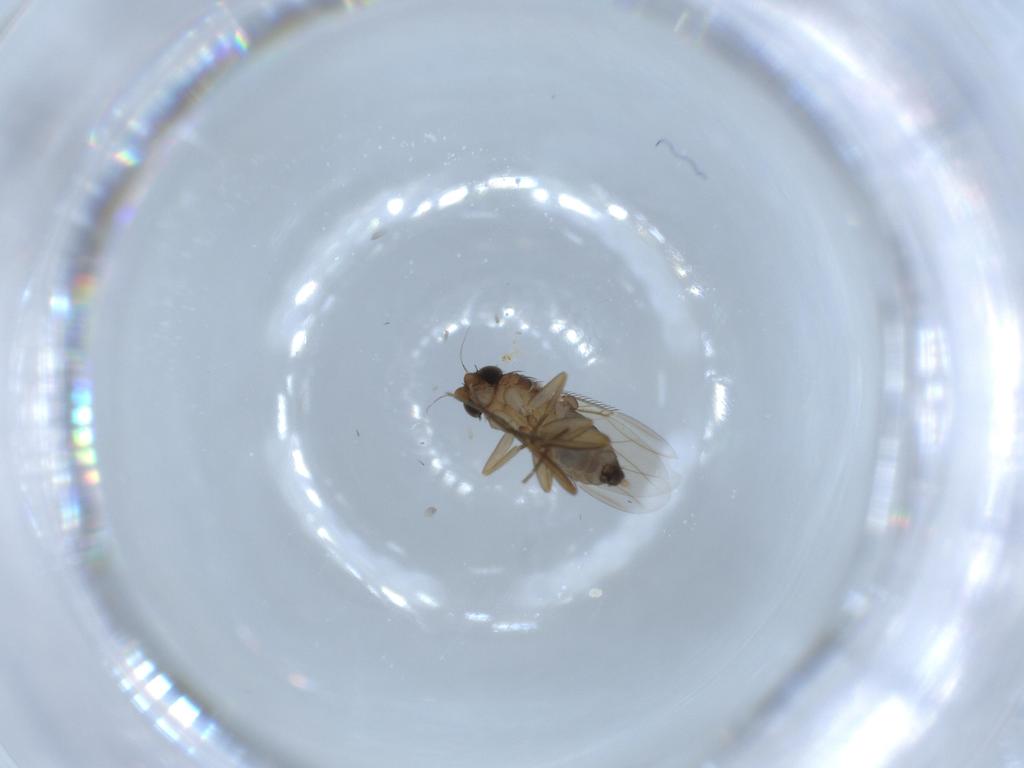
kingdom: Animalia
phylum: Arthropoda
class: Insecta
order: Diptera
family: Phoridae
